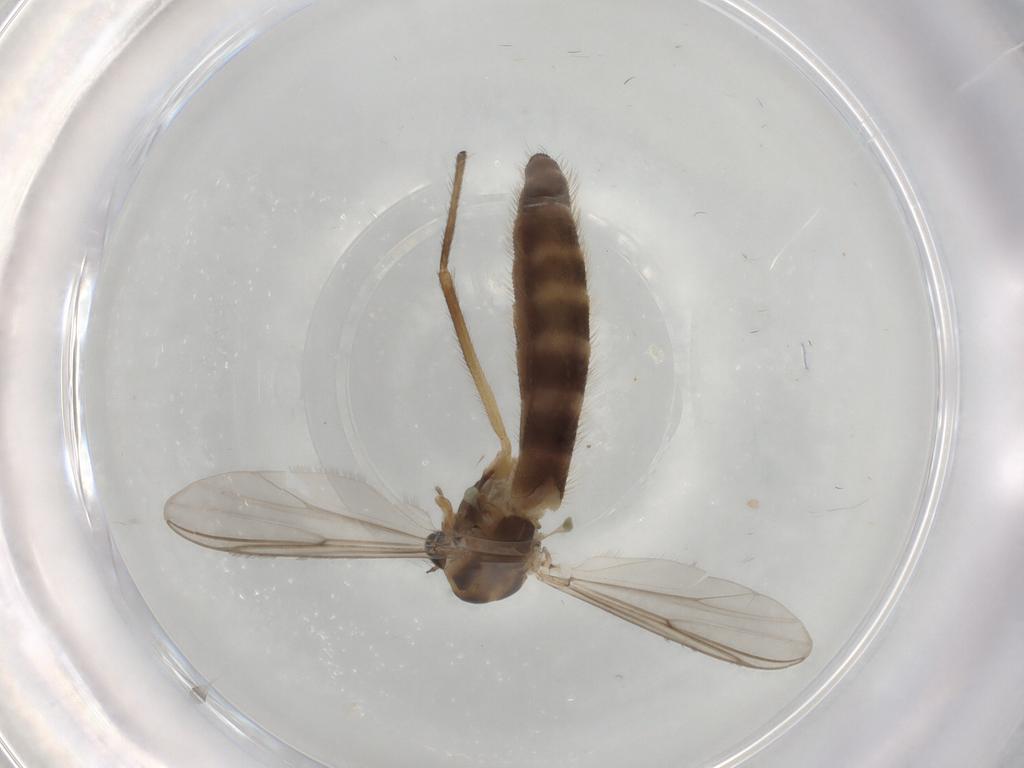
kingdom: Animalia
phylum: Arthropoda
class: Insecta
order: Diptera
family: Chironomidae
